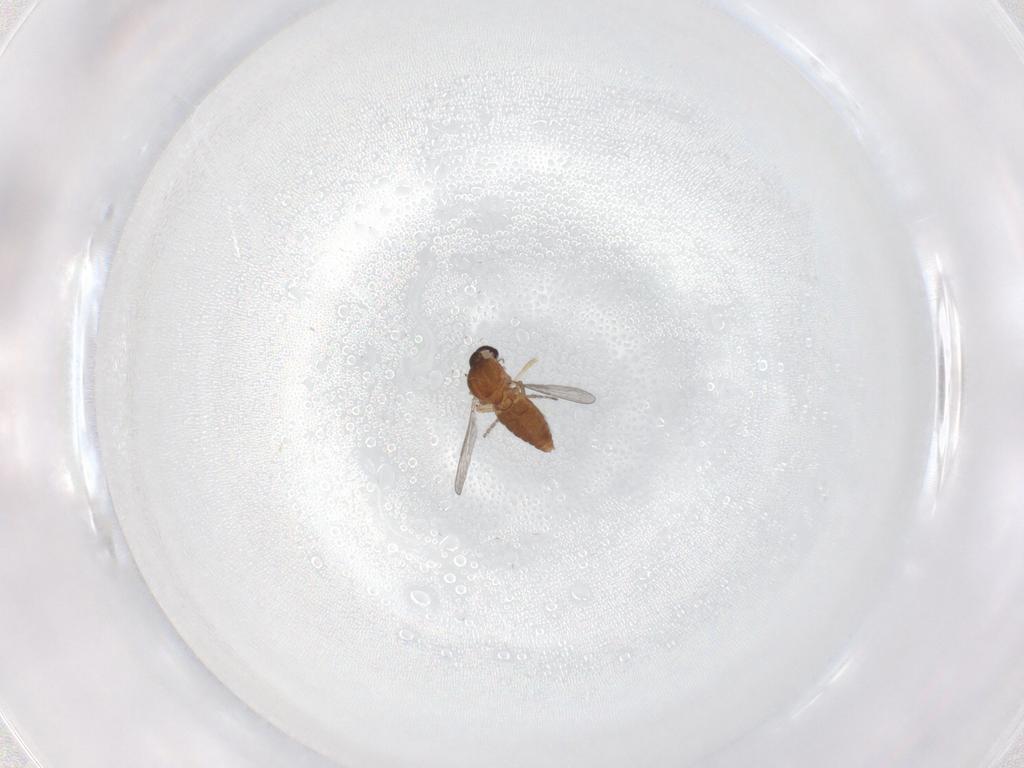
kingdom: Animalia
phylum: Arthropoda
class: Insecta
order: Diptera
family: Ceratopogonidae
